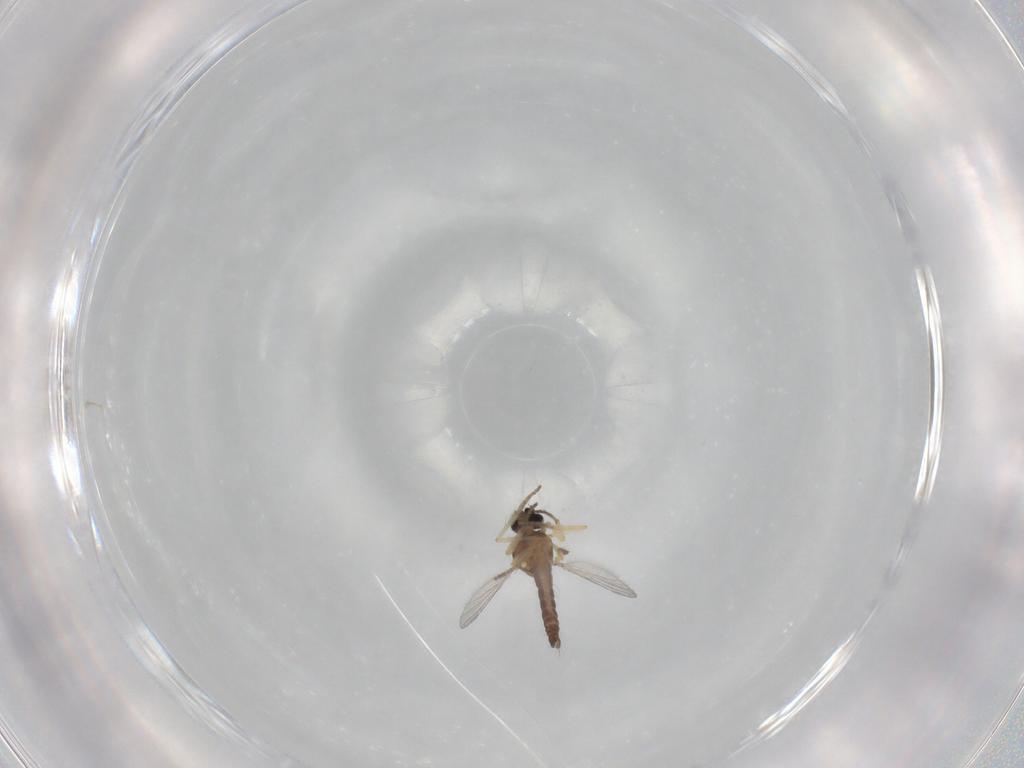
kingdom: Animalia
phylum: Arthropoda
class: Insecta
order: Diptera
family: Ceratopogonidae
